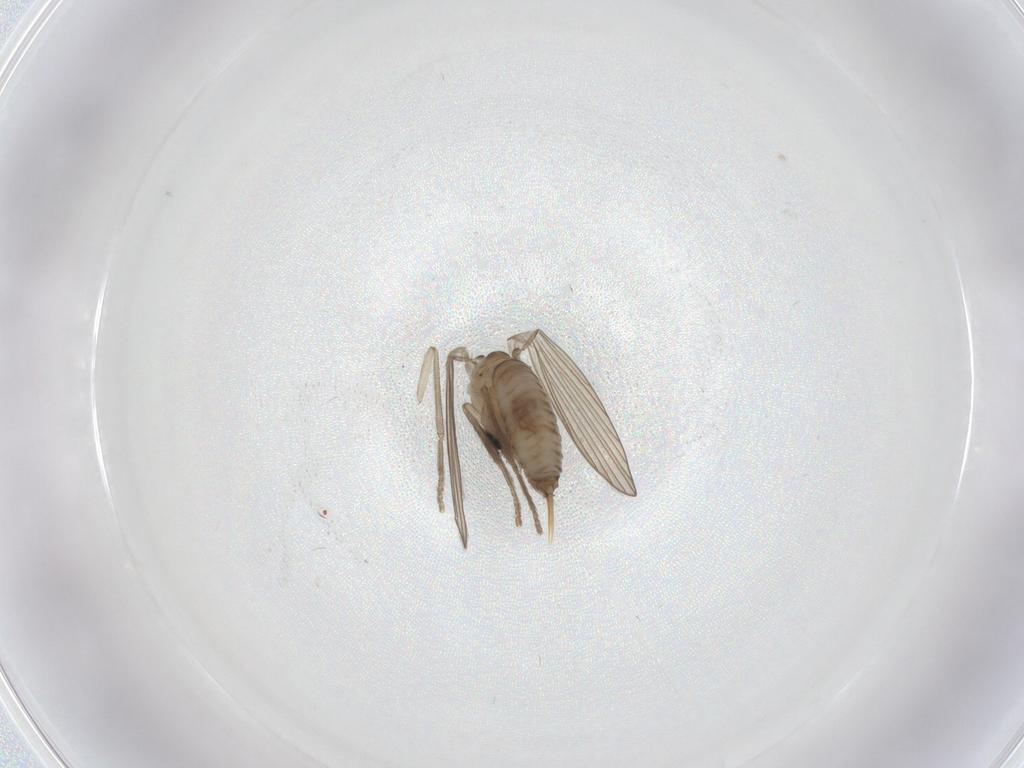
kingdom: Animalia
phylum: Arthropoda
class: Insecta
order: Diptera
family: Psychodidae
